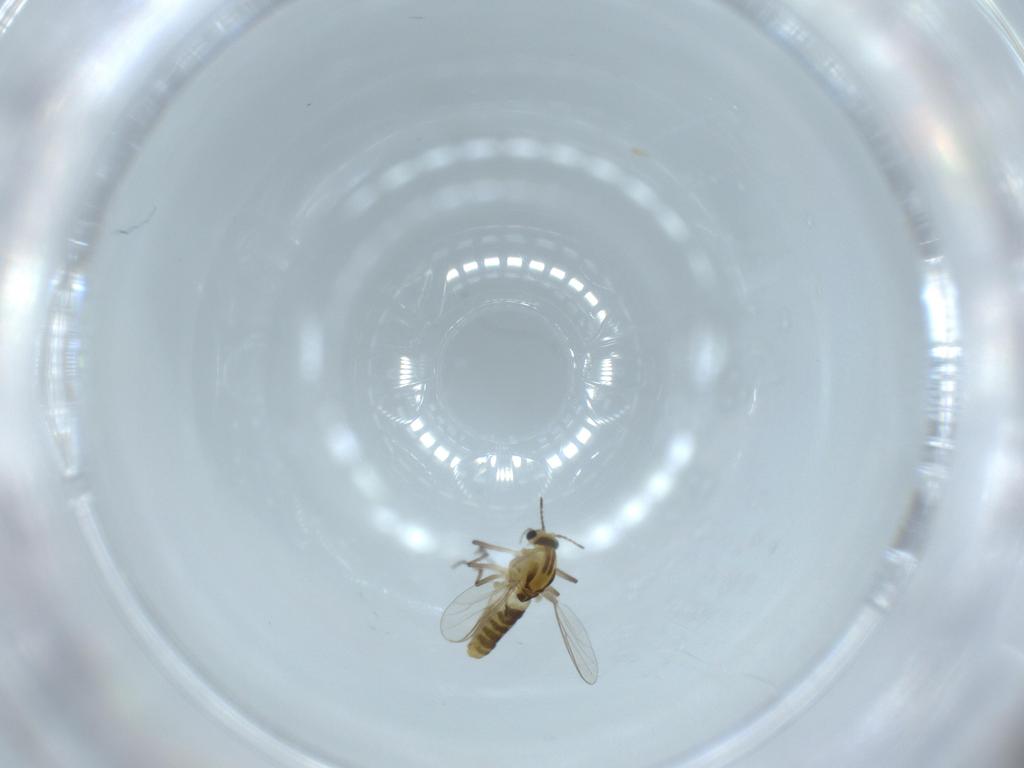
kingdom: Animalia
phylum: Arthropoda
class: Insecta
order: Diptera
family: Chironomidae
